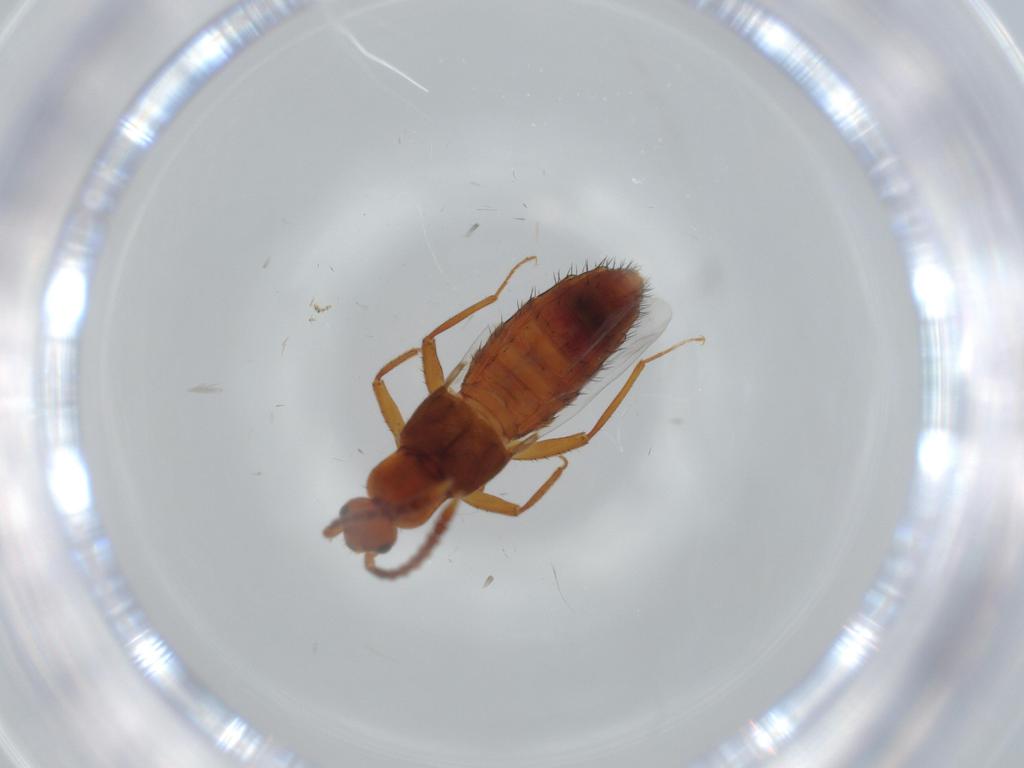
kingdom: Animalia
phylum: Arthropoda
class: Insecta
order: Coleoptera
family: Staphylinidae
